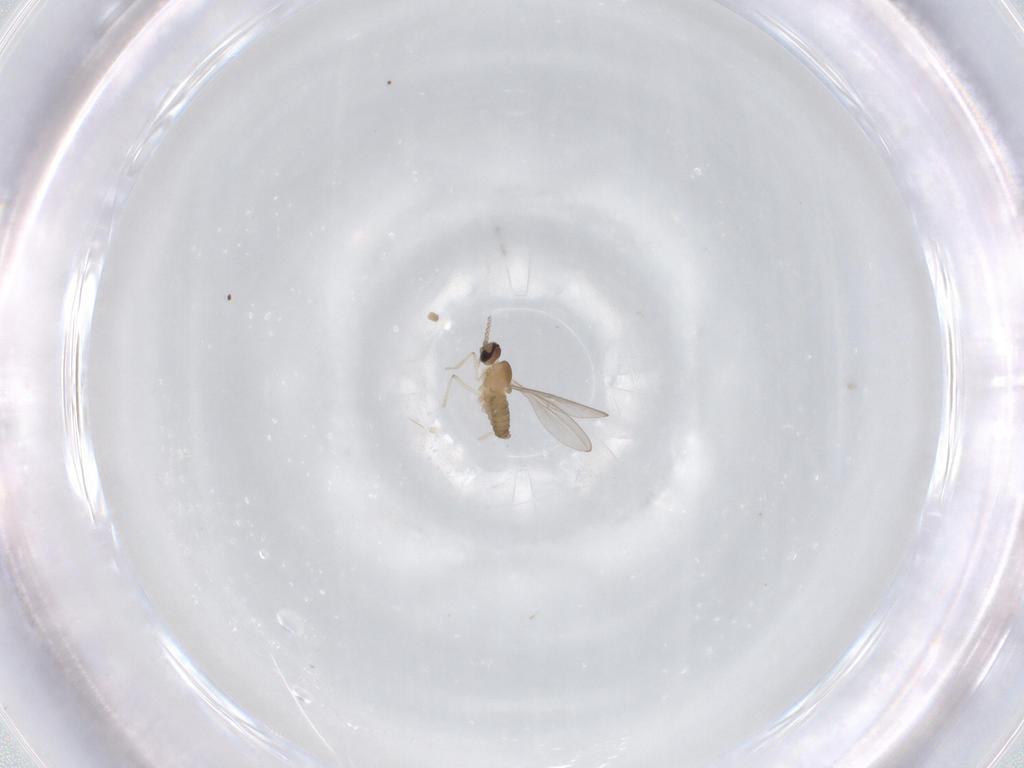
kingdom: Animalia
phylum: Arthropoda
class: Insecta
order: Diptera
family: Cecidomyiidae
